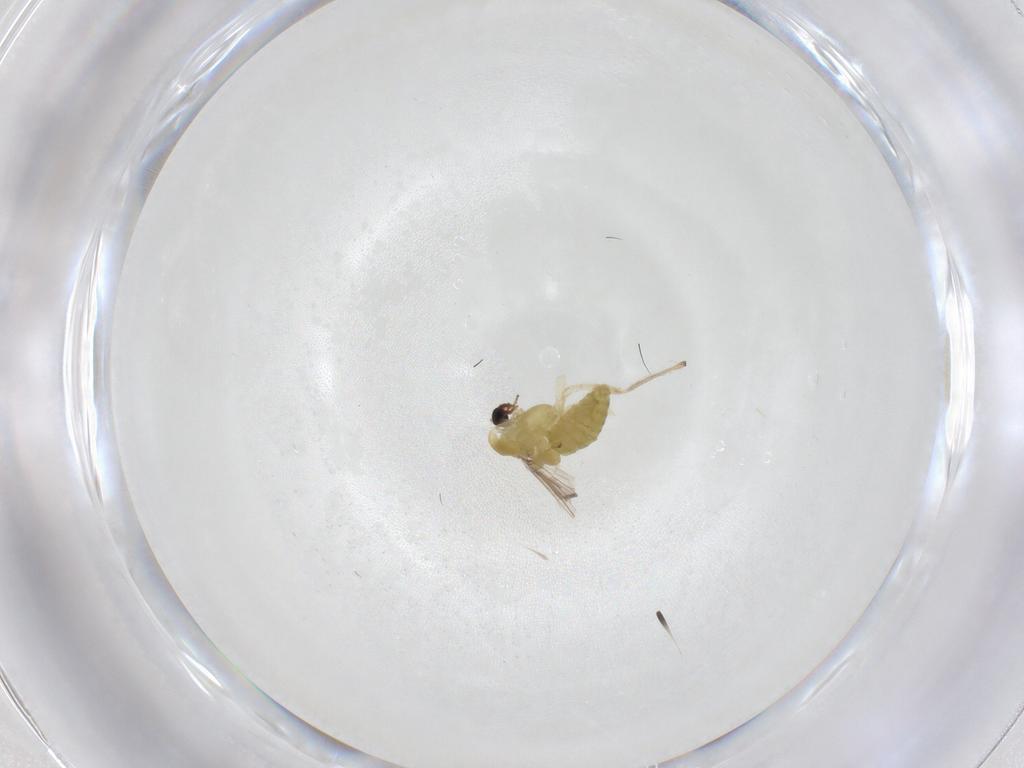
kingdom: Animalia
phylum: Arthropoda
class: Insecta
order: Diptera
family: Chironomidae
